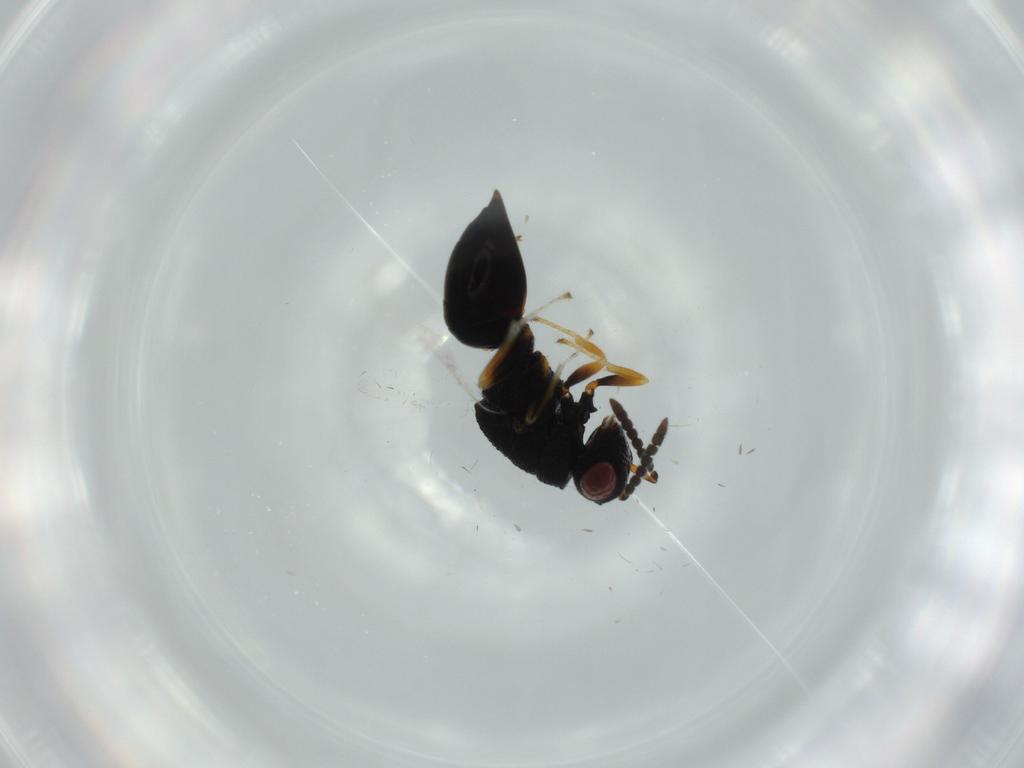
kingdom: Animalia
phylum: Arthropoda
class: Insecta
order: Hymenoptera
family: Eurytomidae
